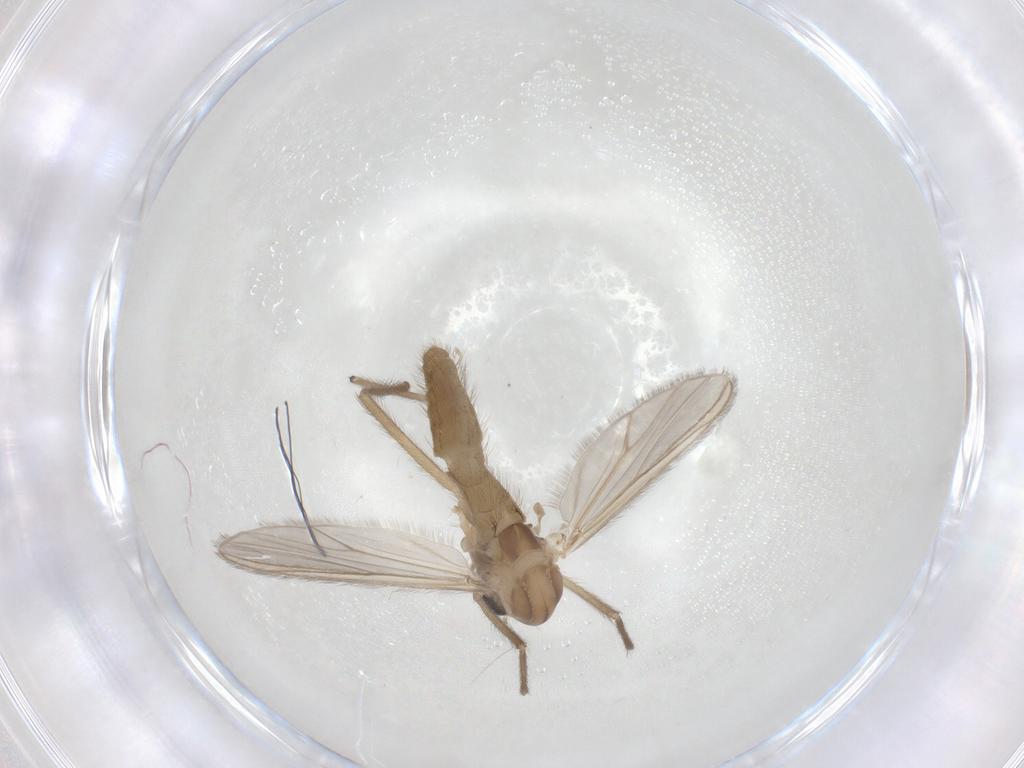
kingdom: Animalia
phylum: Arthropoda
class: Insecta
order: Diptera
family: Chironomidae
